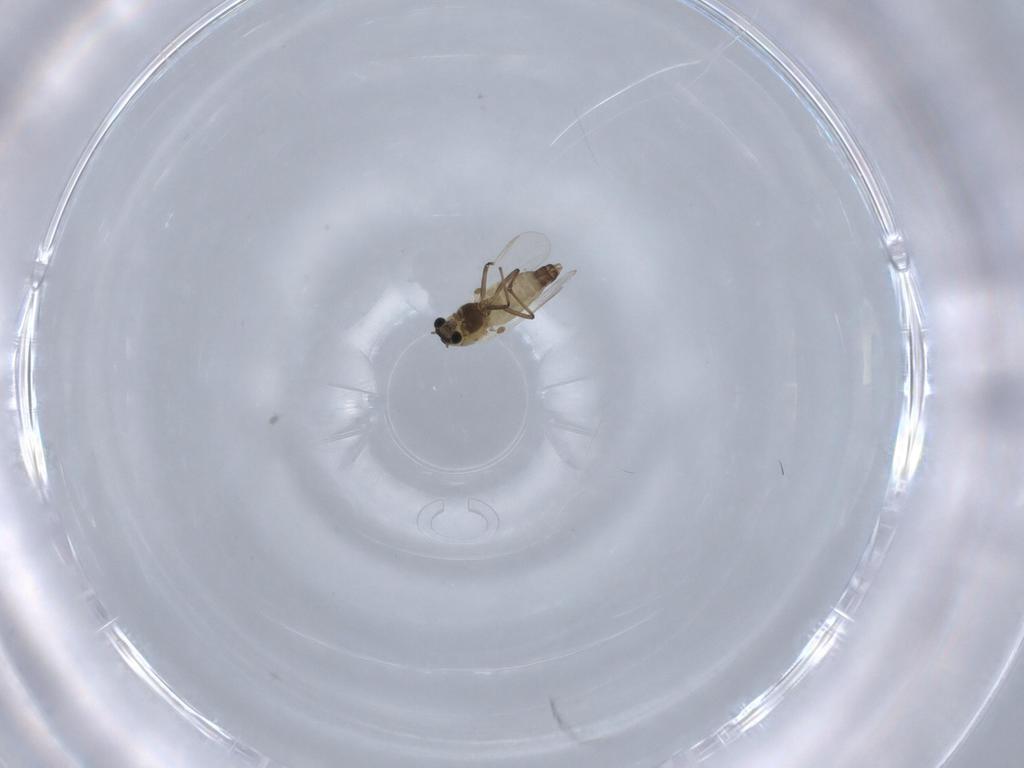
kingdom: Animalia
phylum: Arthropoda
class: Insecta
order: Diptera
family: Chironomidae
